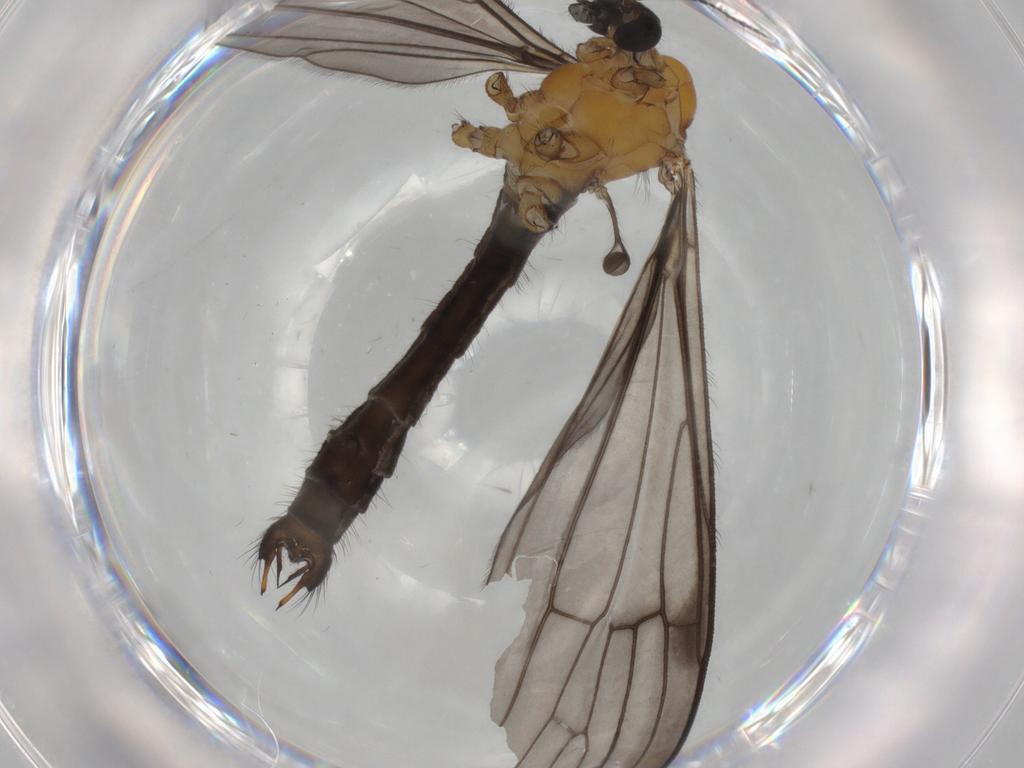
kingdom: Animalia
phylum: Arthropoda
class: Insecta
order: Diptera
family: Limoniidae
